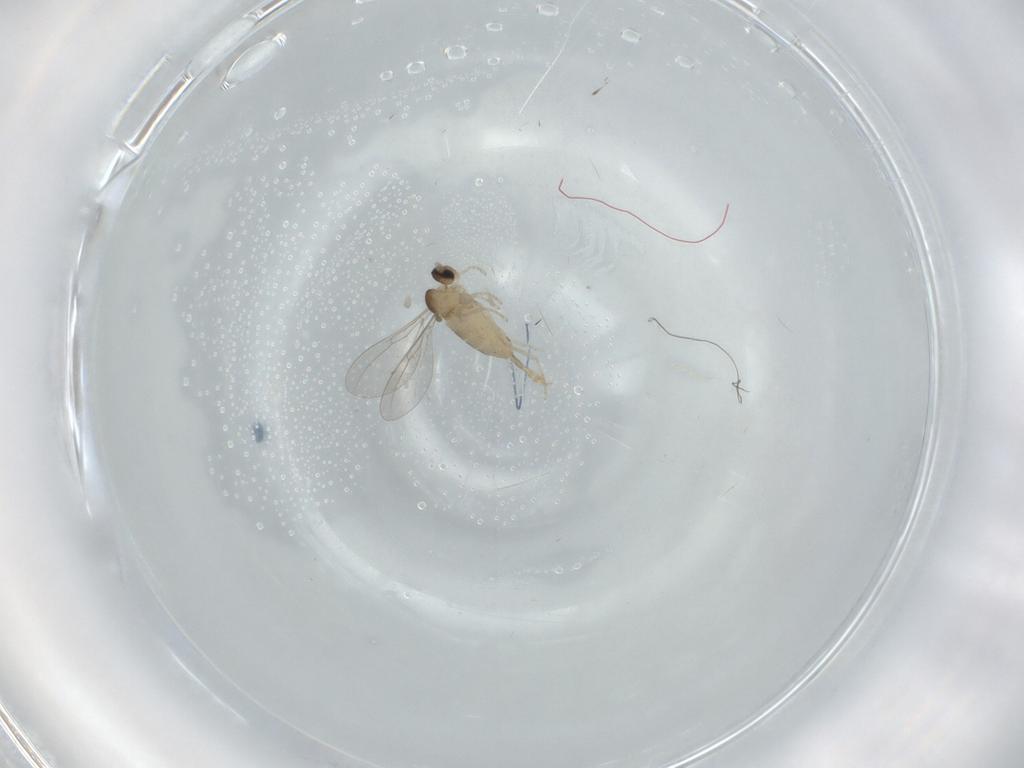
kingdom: Animalia
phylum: Arthropoda
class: Insecta
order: Diptera
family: Cecidomyiidae
